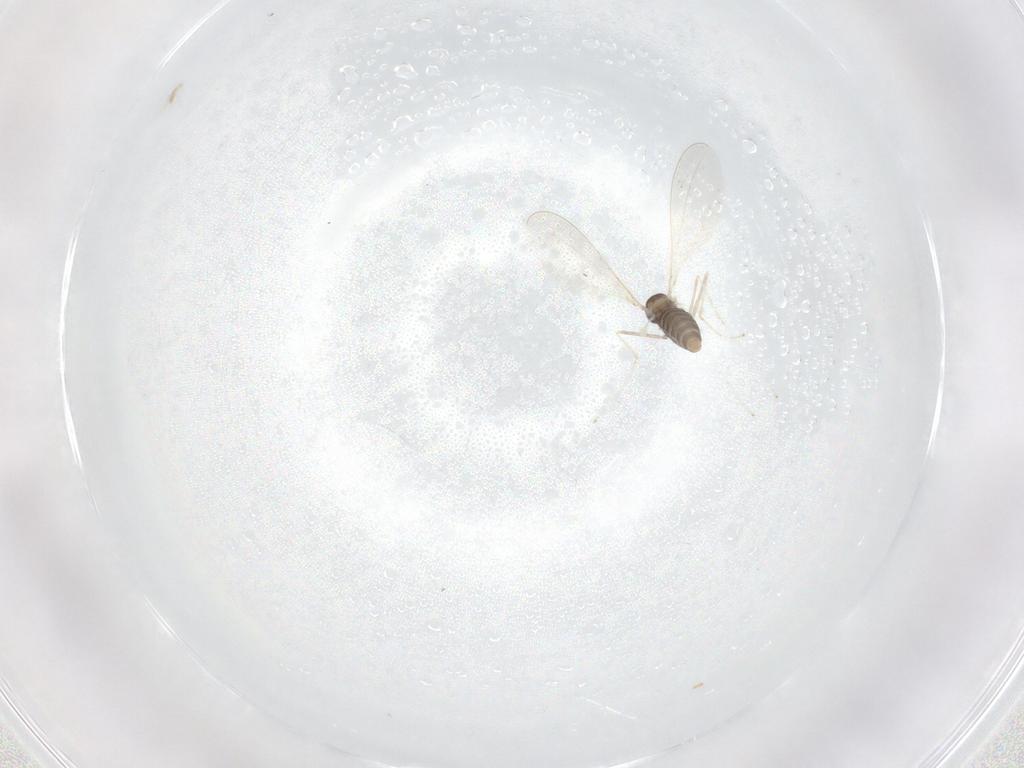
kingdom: Animalia
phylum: Arthropoda
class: Insecta
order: Diptera
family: Cecidomyiidae
